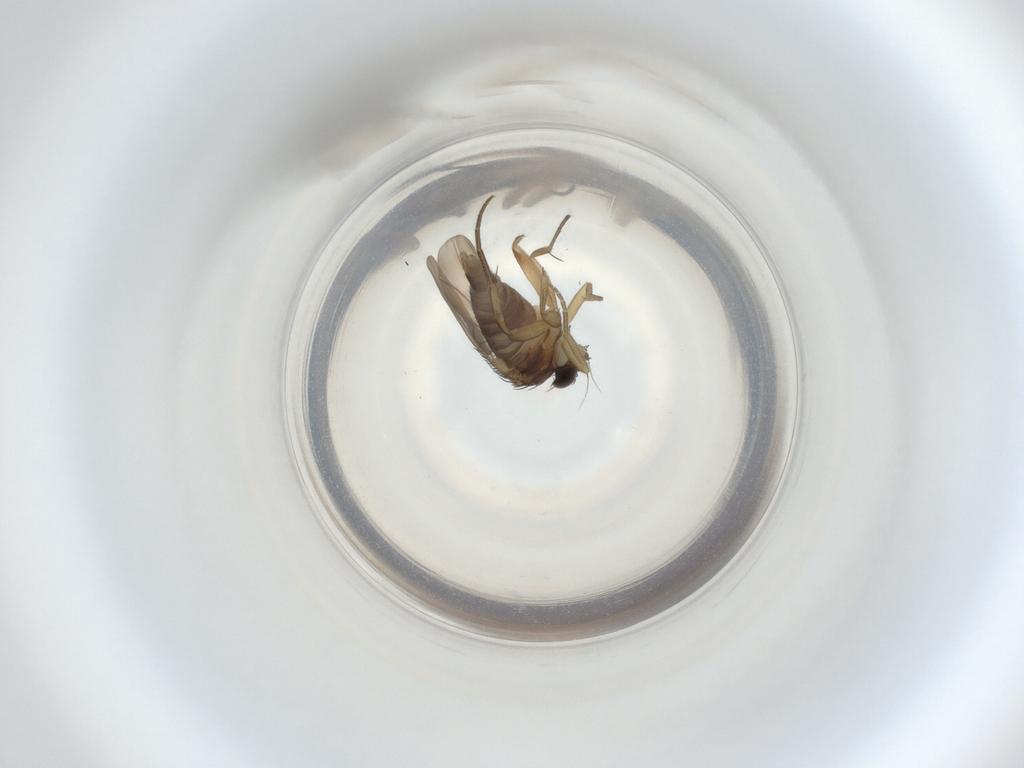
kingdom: Animalia
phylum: Arthropoda
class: Insecta
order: Diptera
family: Phoridae
